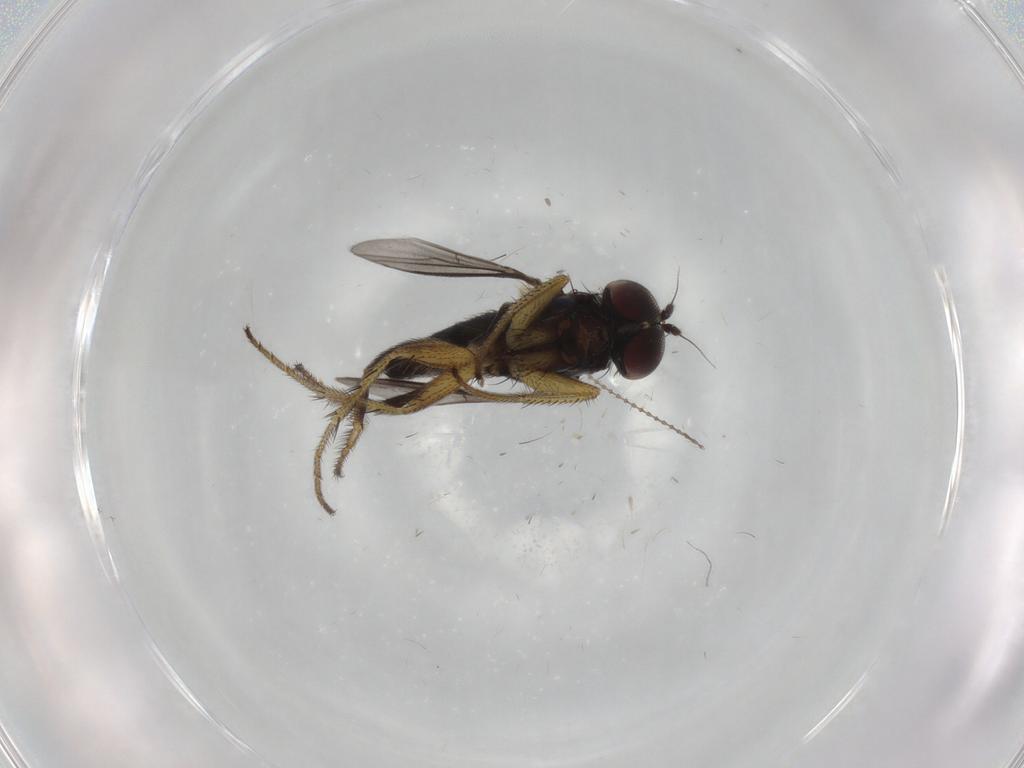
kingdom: Animalia
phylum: Arthropoda
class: Insecta
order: Diptera
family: Dolichopodidae
